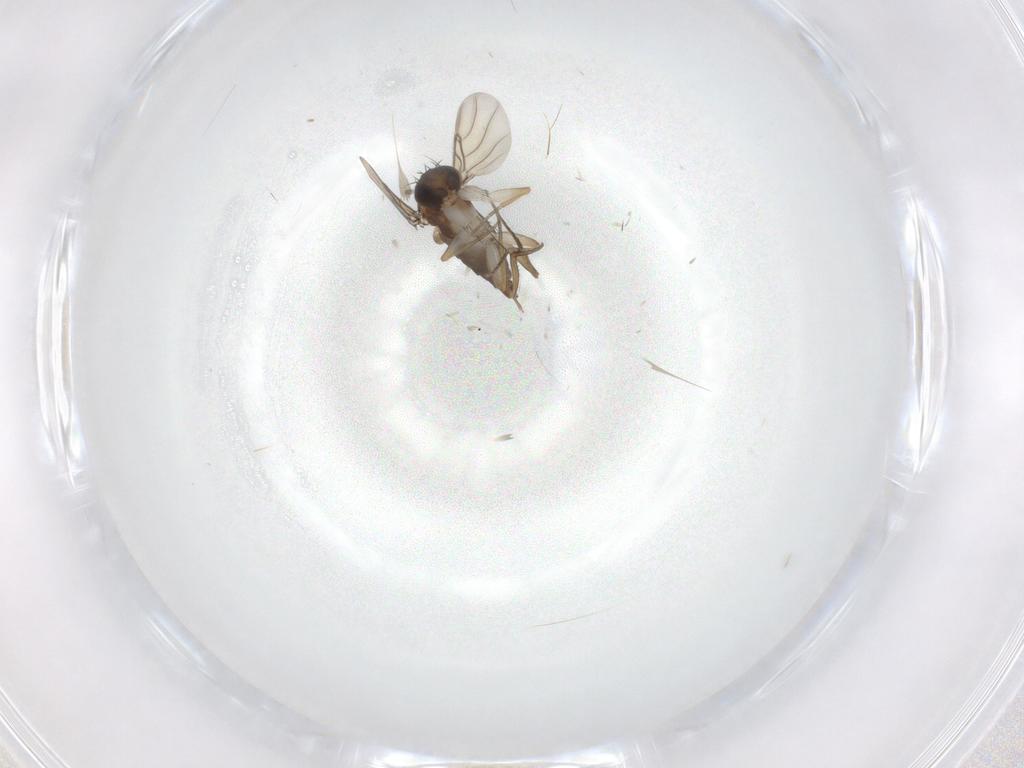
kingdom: Animalia
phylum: Arthropoda
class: Insecta
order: Diptera
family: Phoridae
